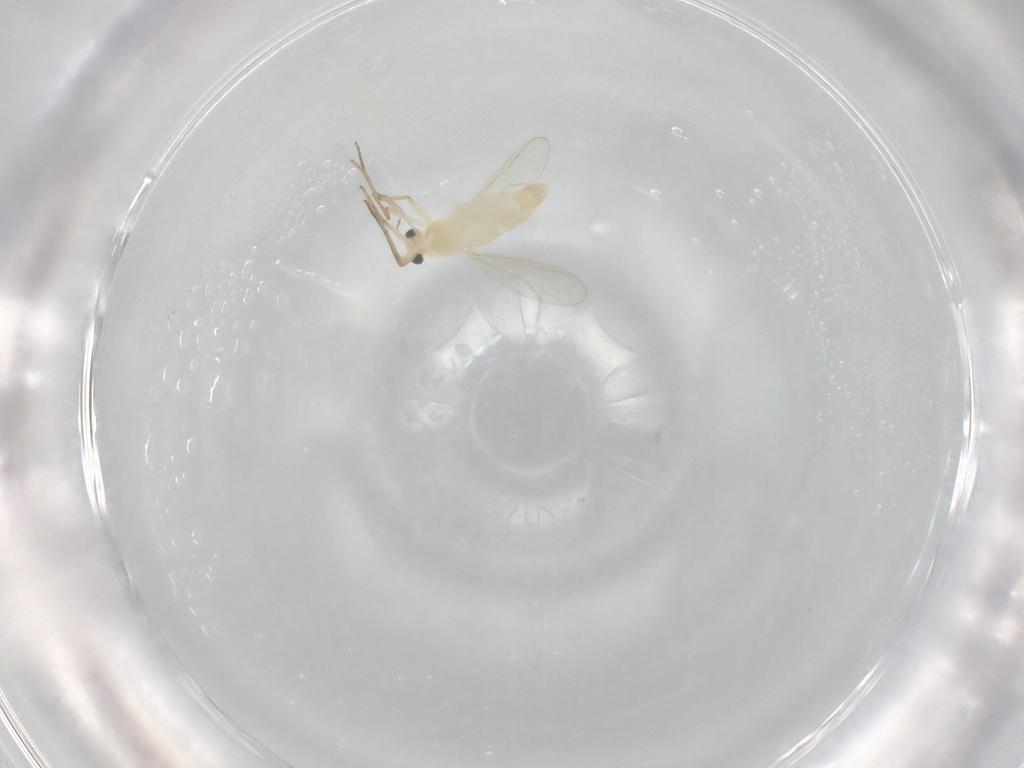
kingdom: Animalia
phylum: Arthropoda
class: Insecta
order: Diptera
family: Chironomidae
